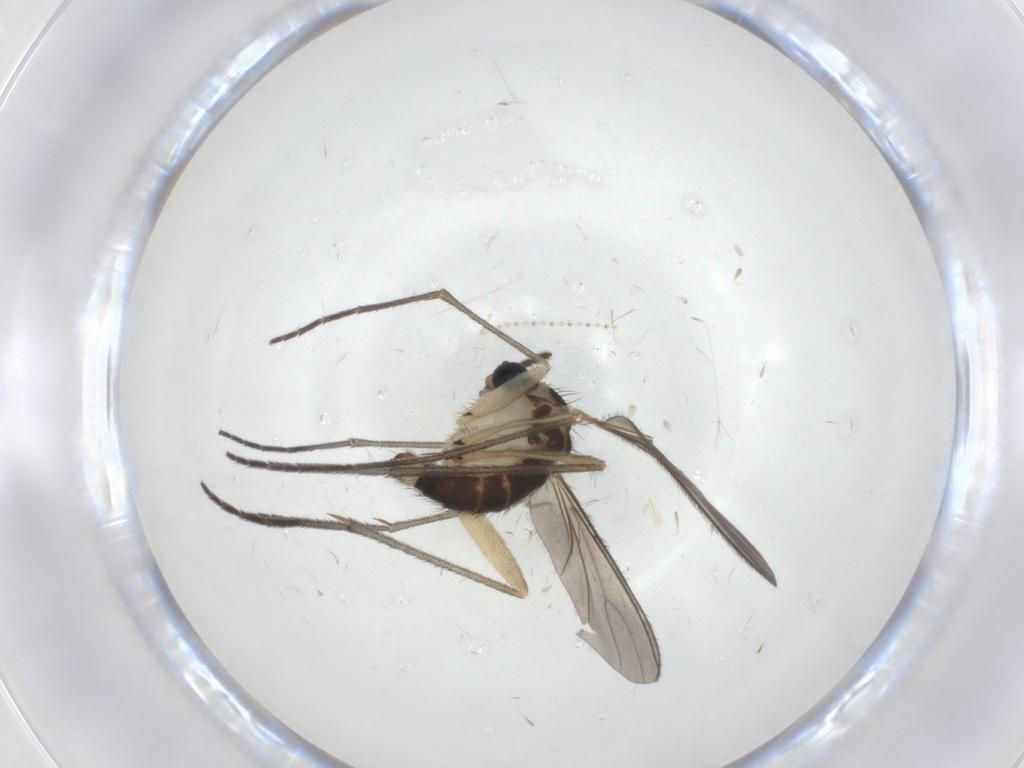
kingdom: Animalia
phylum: Arthropoda
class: Insecta
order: Diptera
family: Sciaridae
